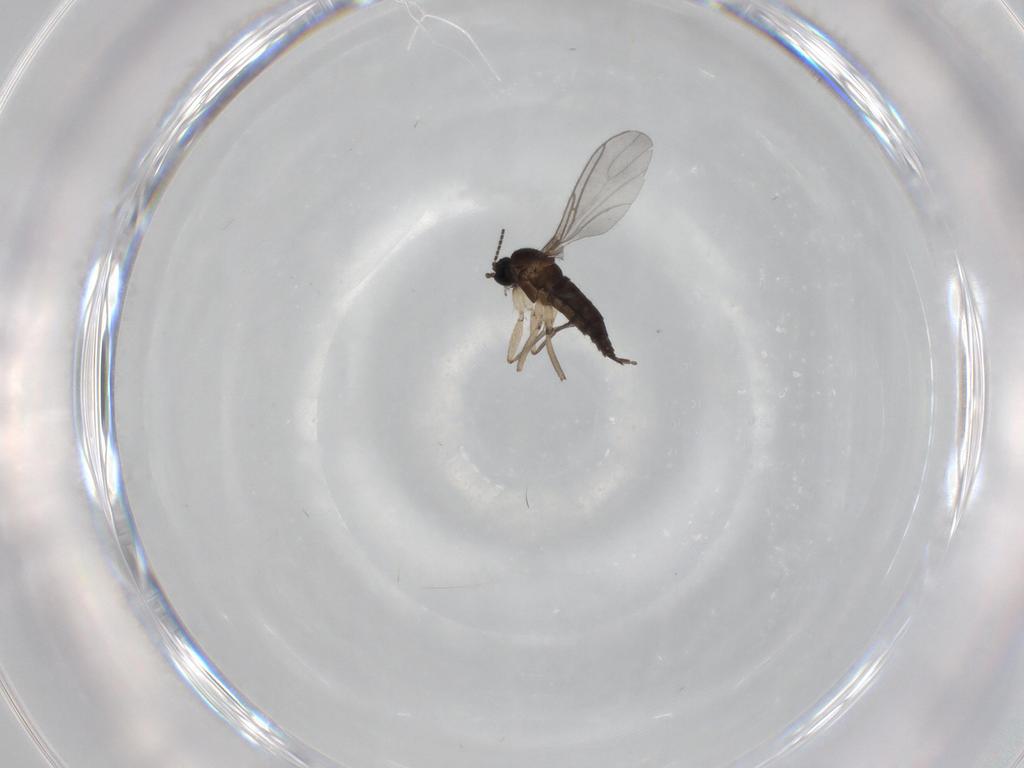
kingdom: Animalia
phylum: Arthropoda
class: Insecta
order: Diptera
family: Sciaridae
